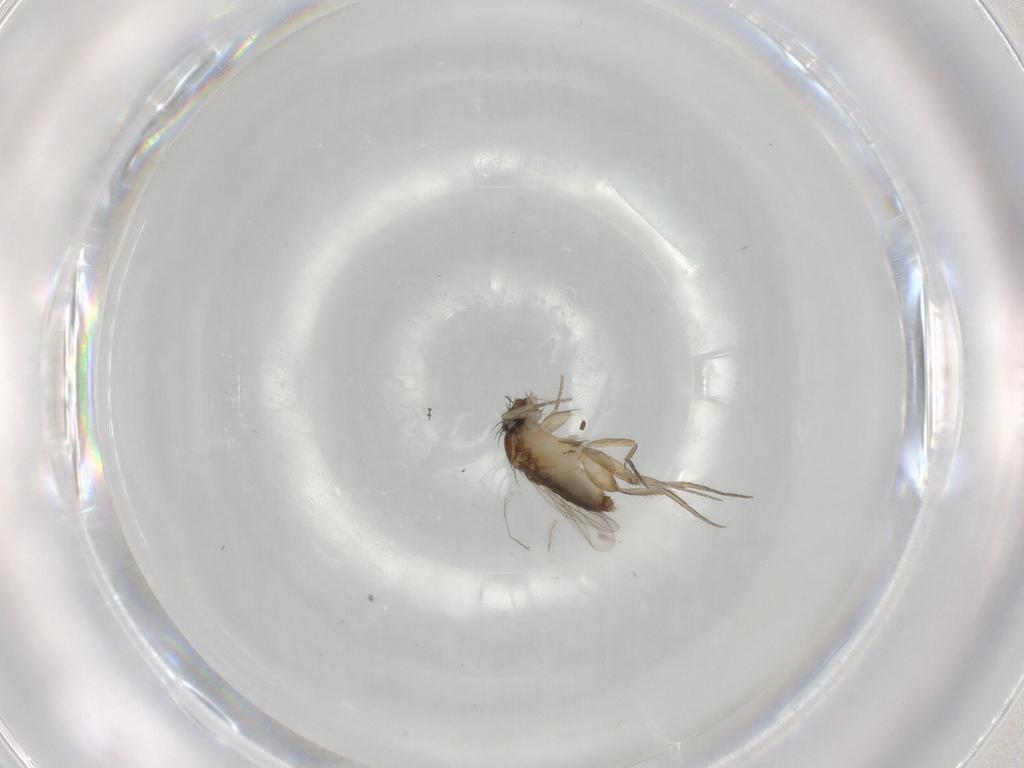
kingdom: Animalia
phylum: Arthropoda
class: Insecta
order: Diptera
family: Phoridae
